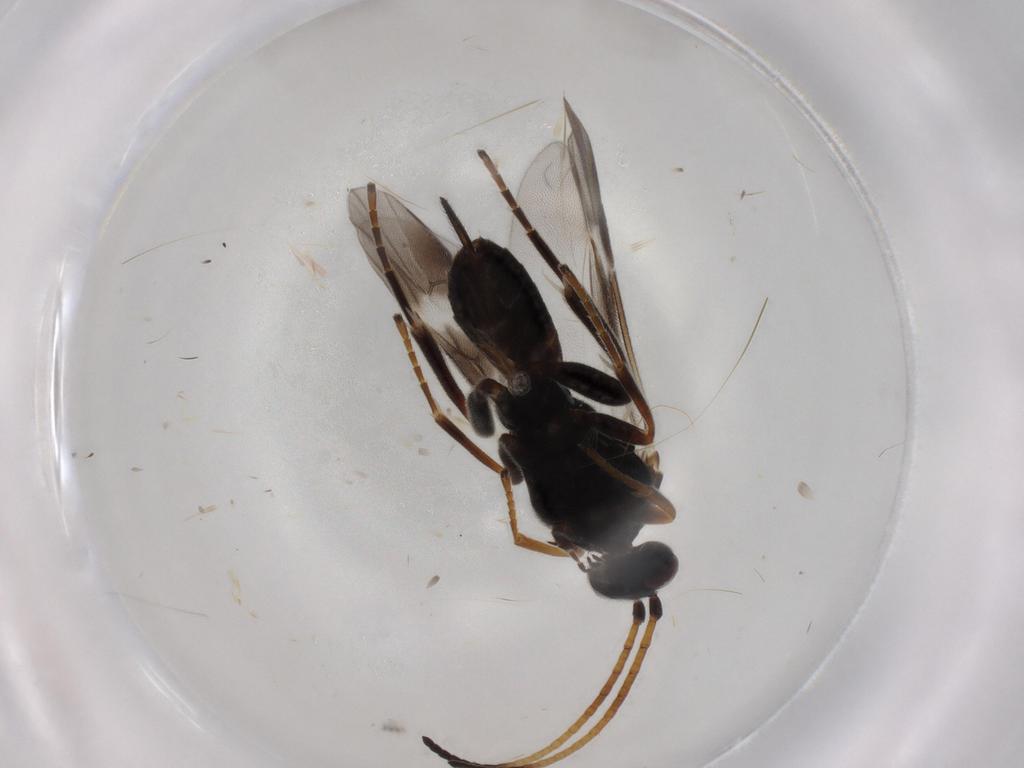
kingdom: Animalia
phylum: Arthropoda
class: Insecta
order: Hymenoptera
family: Braconidae
